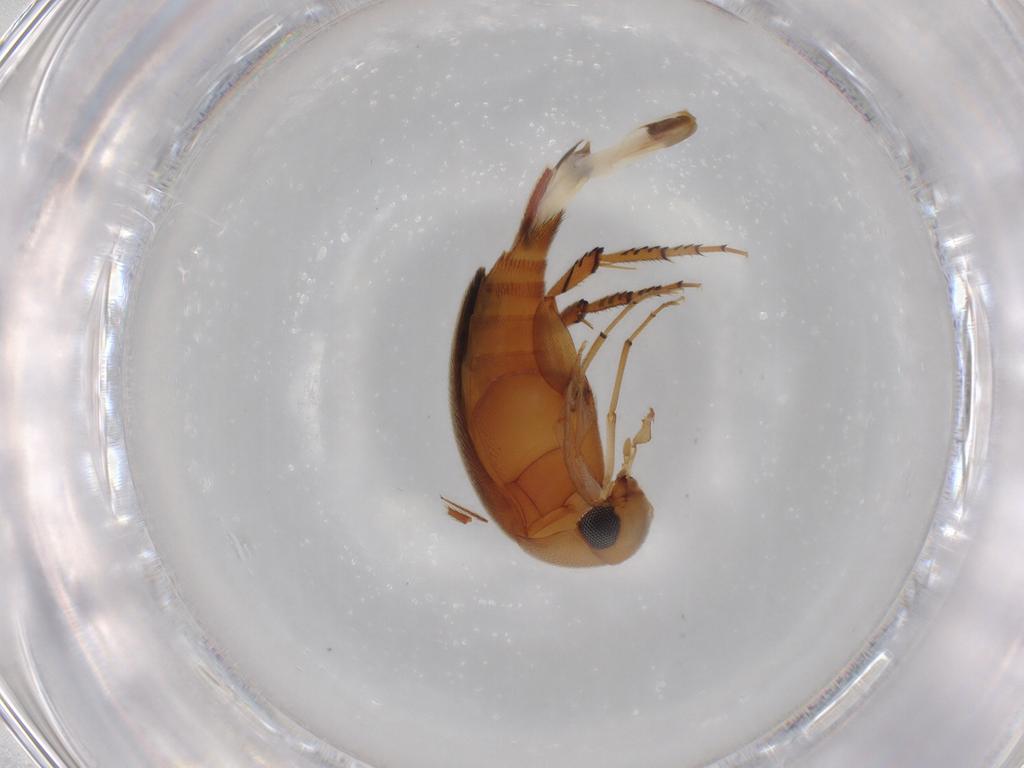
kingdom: Animalia
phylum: Arthropoda
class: Insecta
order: Coleoptera
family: Mordellidae
